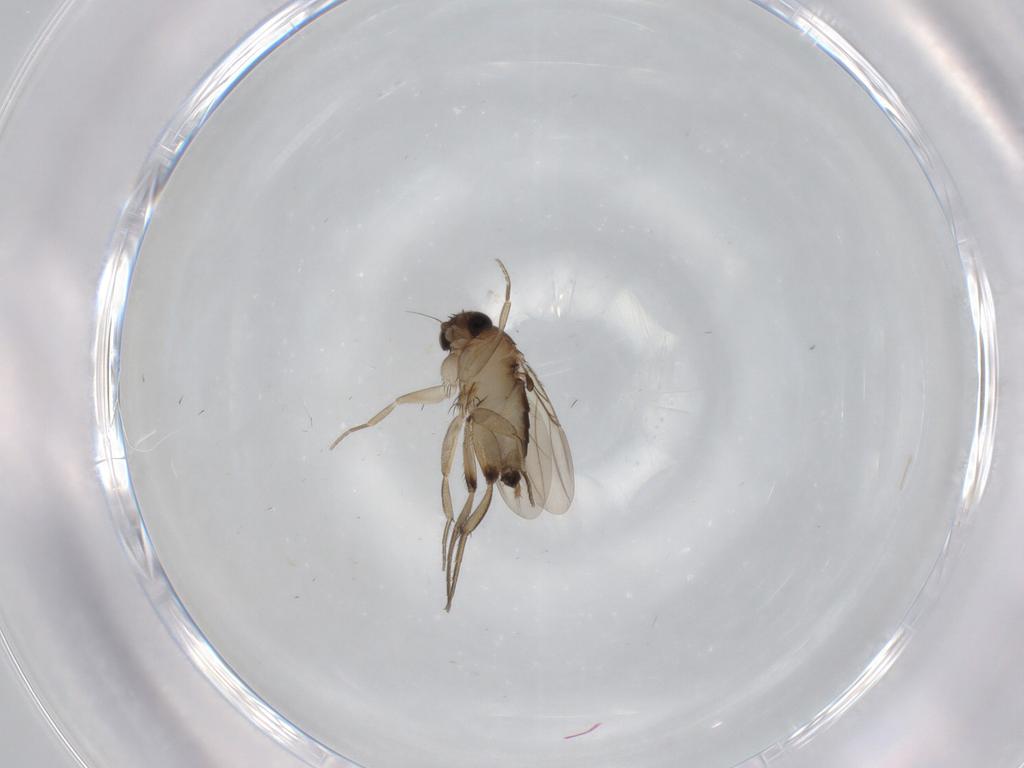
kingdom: Animalia
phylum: Arthropoda
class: Insecta
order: Diptera
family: Phoridae
